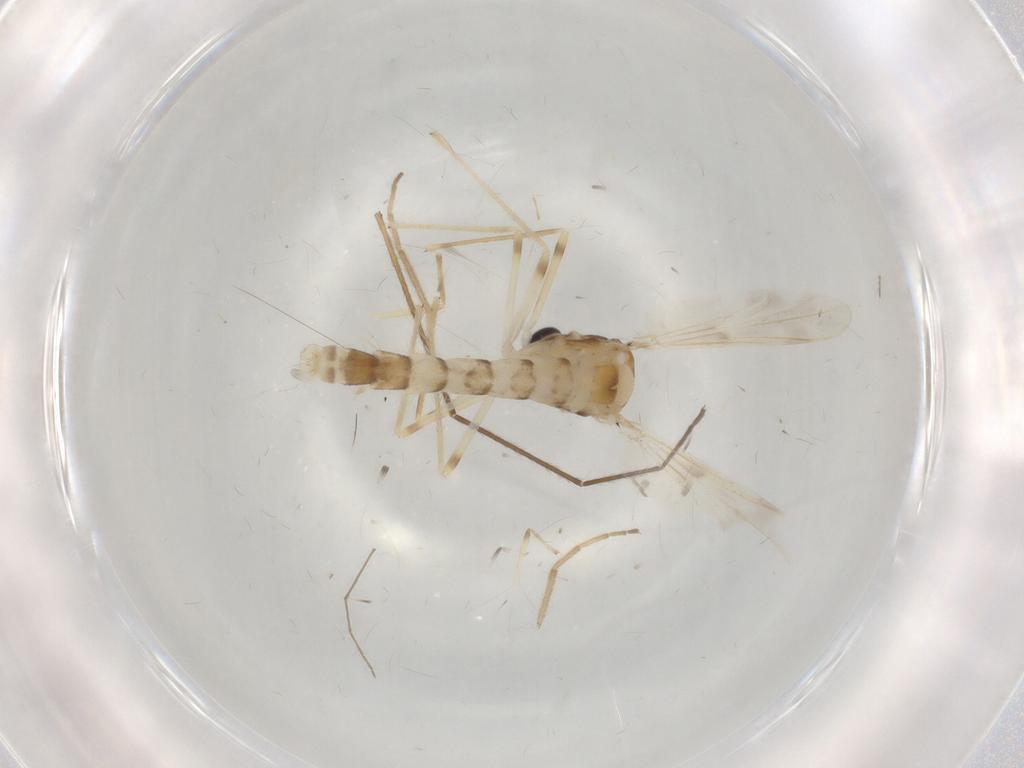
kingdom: Animalia
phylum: Arthropoda
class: Insecta
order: Diptera
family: Chironomidae
